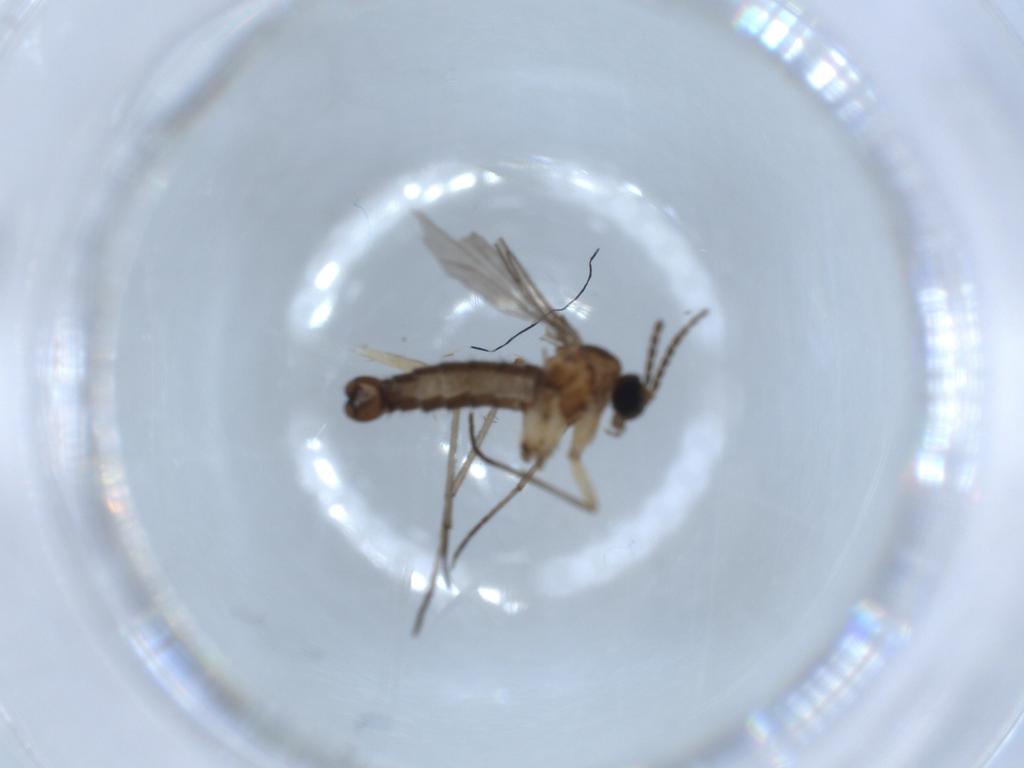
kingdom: Animalia
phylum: Arthropoda
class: Insecta
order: Diptera
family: Sciaridae
